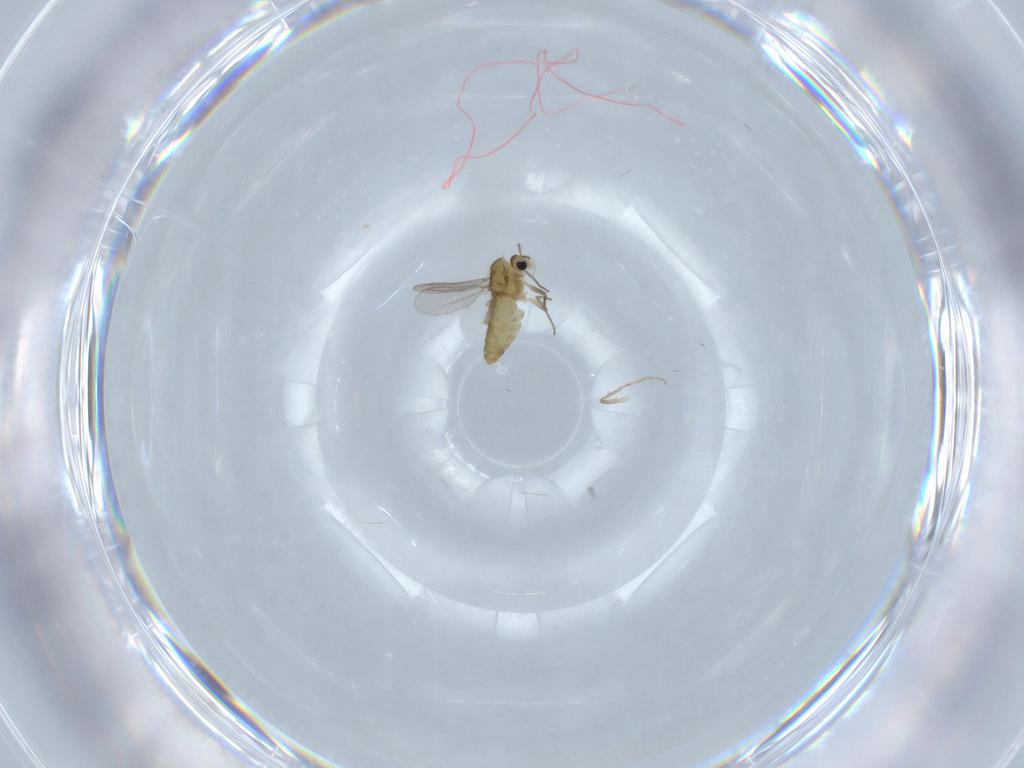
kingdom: Animalia
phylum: Arthropoda
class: Insecta
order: Diptera
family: Chironomidae
